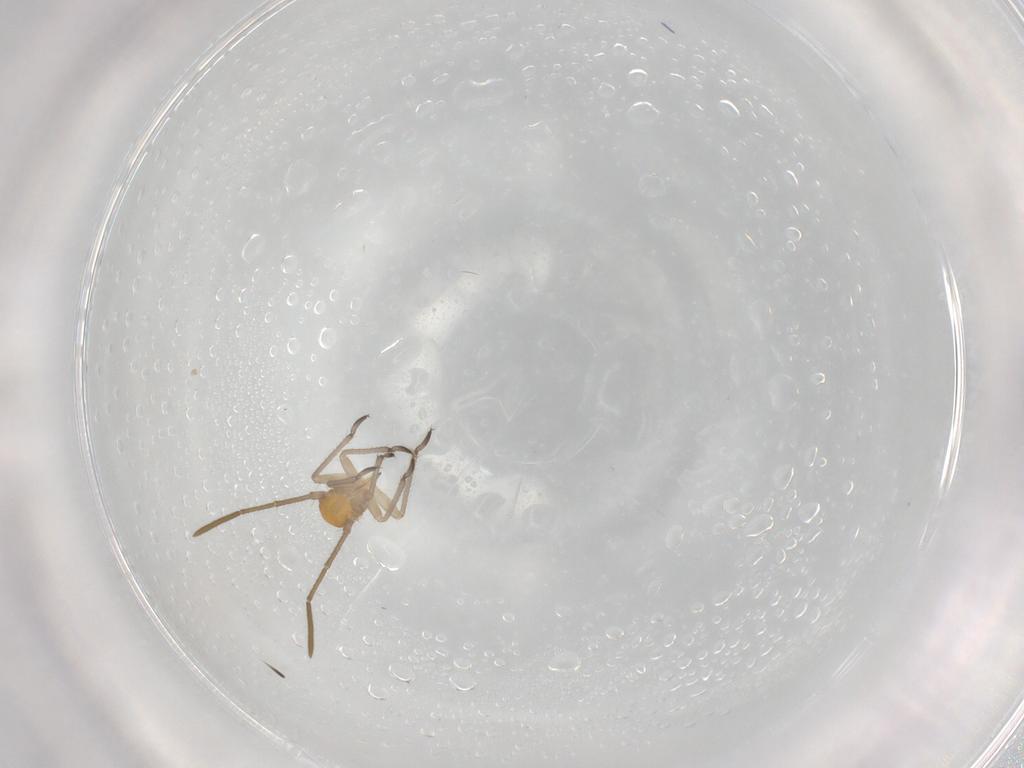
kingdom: Animalia
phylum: Arthropoda
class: Insecta
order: Hemiptera
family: Miridae
